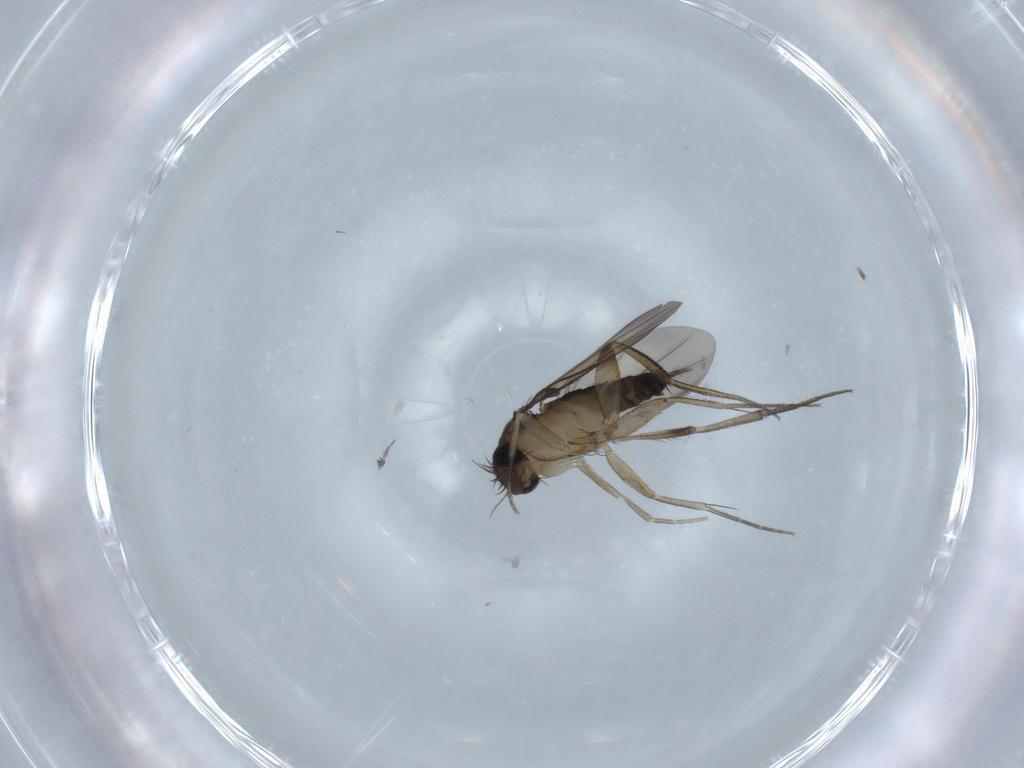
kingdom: Animalia
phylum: Arthropoda
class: Insecta
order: Diptera
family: Phoridae
